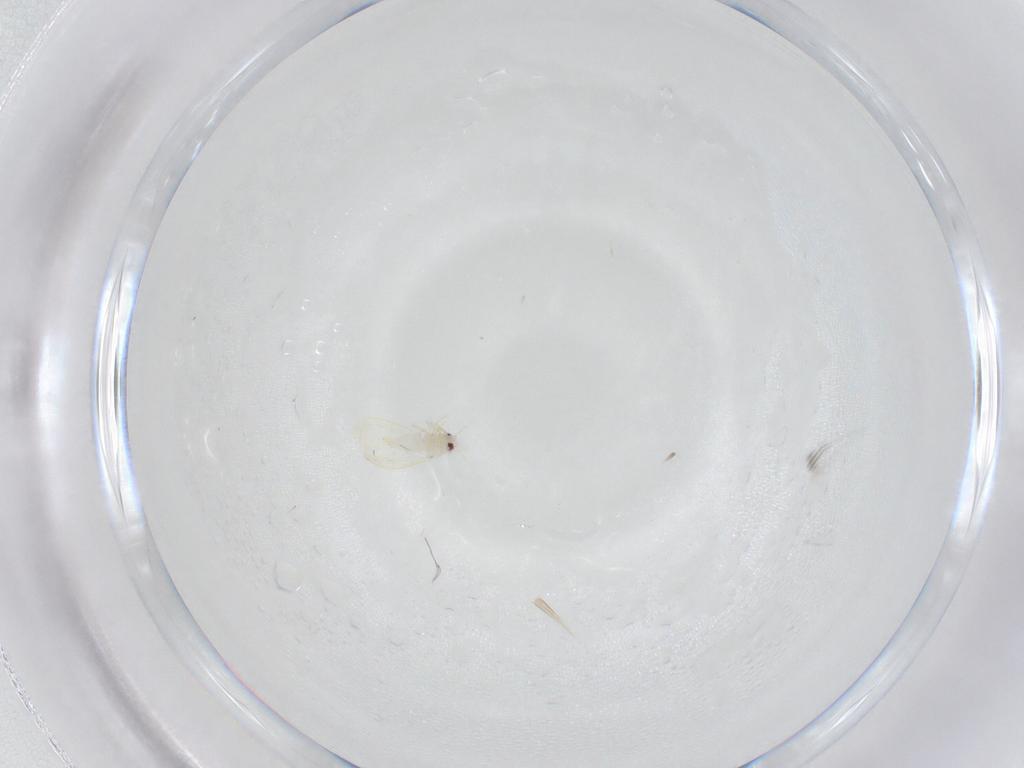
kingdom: Animalia
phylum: Arthropoda
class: Insecta
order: Hemiptera
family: Aleyrodidae
